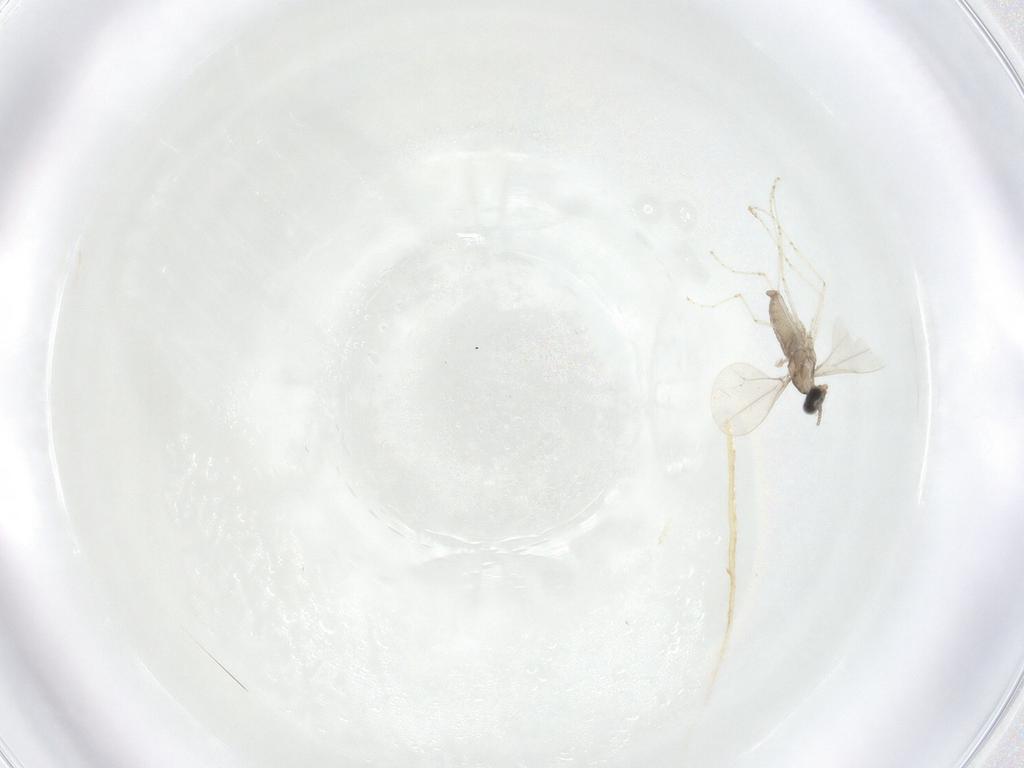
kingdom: Animalia
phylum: Arthropoda
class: Insecta
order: Diptera
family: Cecidomyiidae
